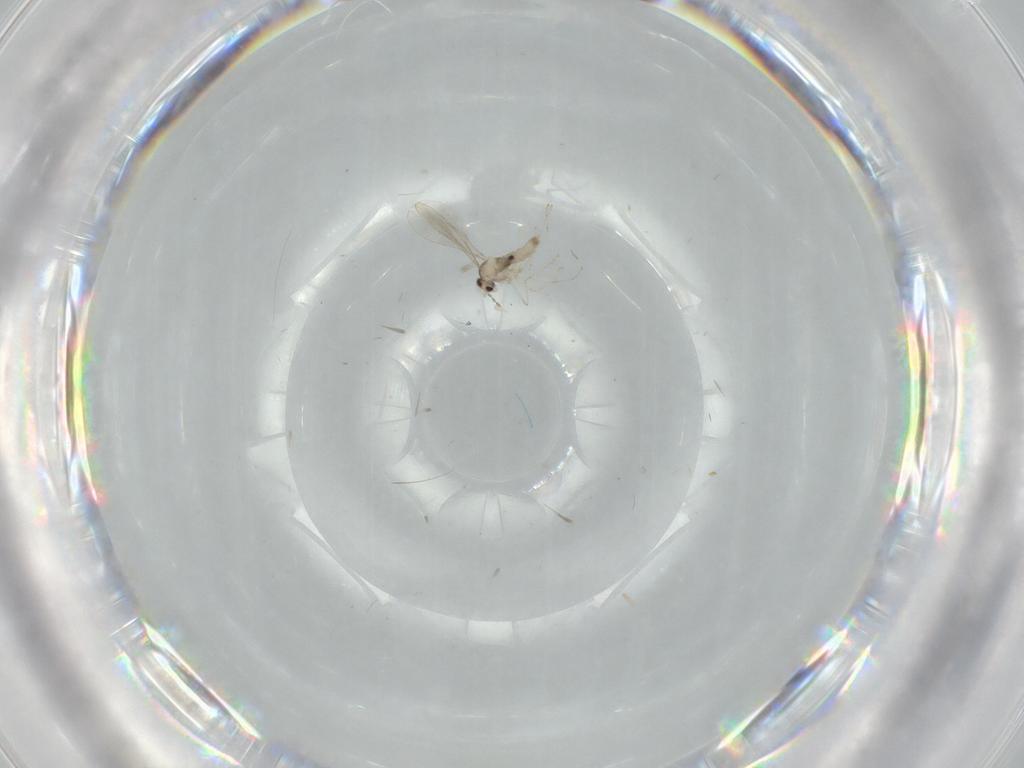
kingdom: Animalia
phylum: Arthropoda
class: Insecta
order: Diptera
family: Cecidomyiidae
